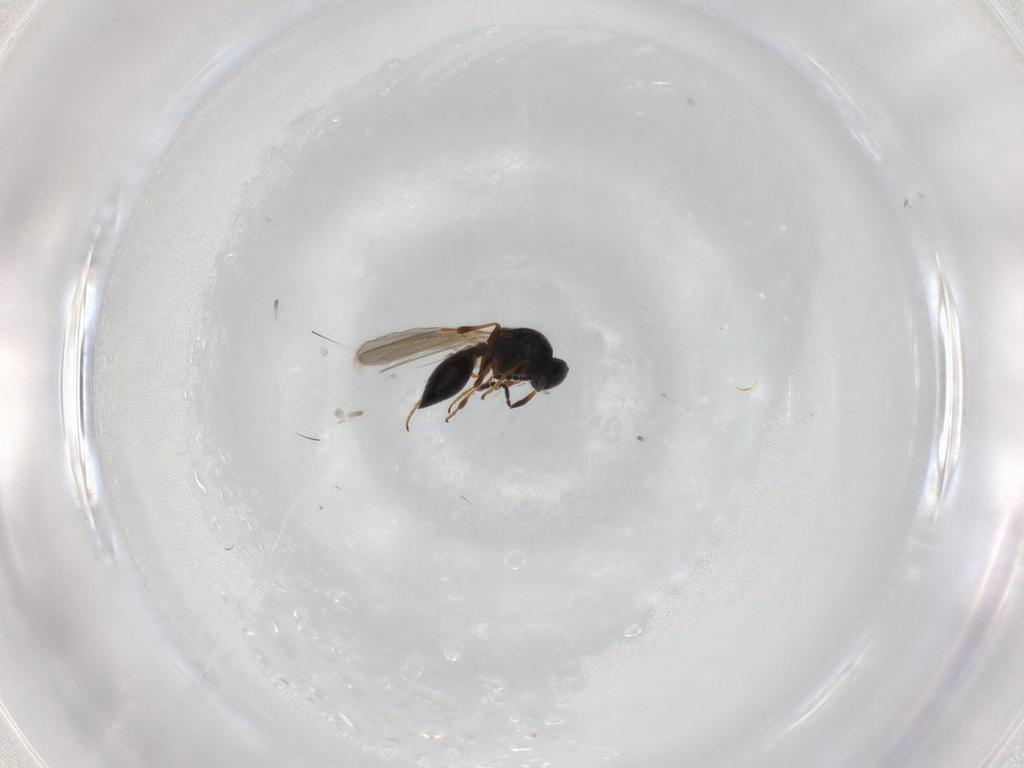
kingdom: Animalia
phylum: Arthropoda
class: Insecta
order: Hymenoptera
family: Platygastridae
